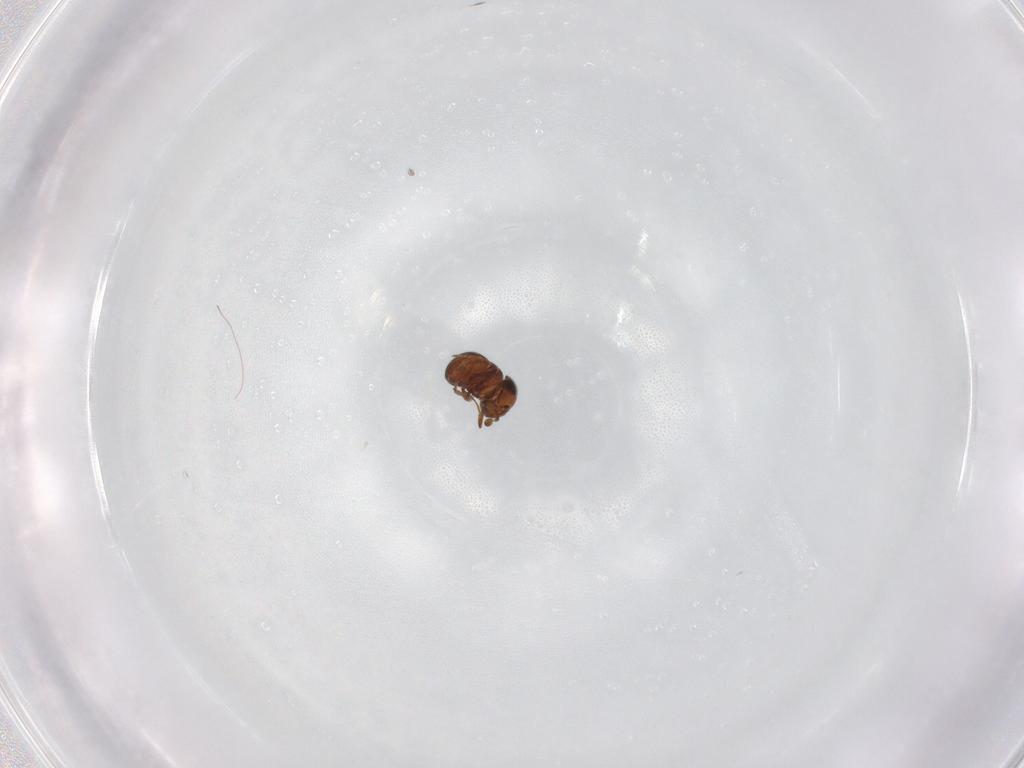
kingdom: Animalia
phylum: Arthropoda
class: Insecta
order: Hymenoptera
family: Scelionidae
